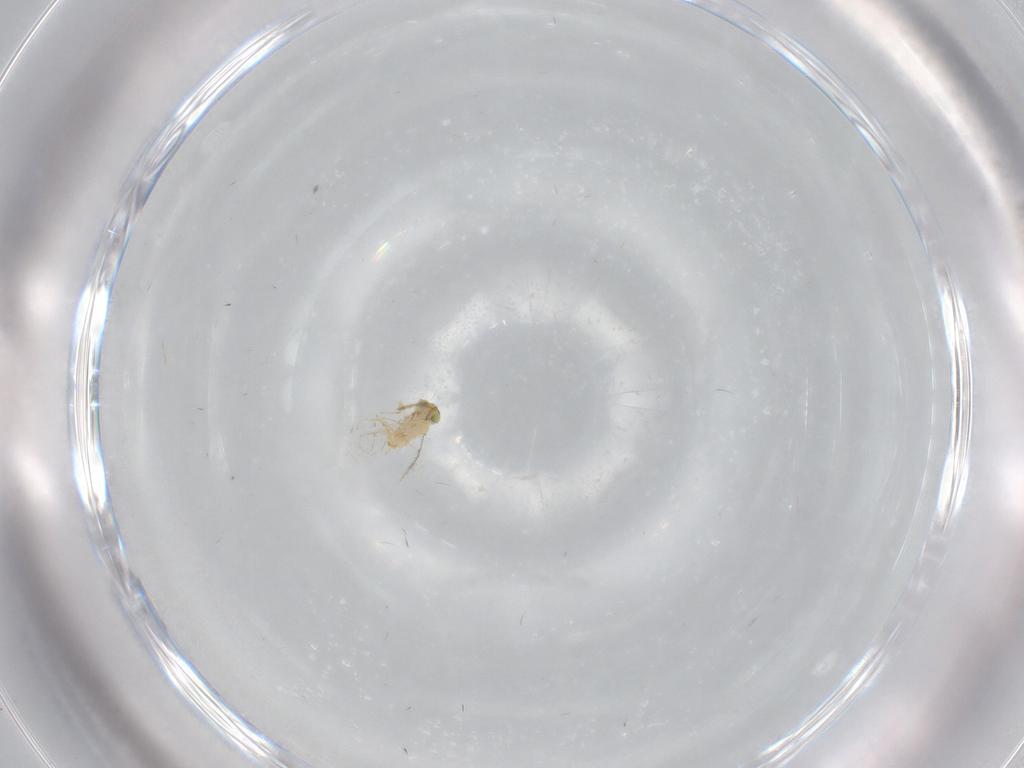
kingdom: Animalia
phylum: Arthropoda
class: Insecta
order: Hymenoptera
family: Aphelinidae
